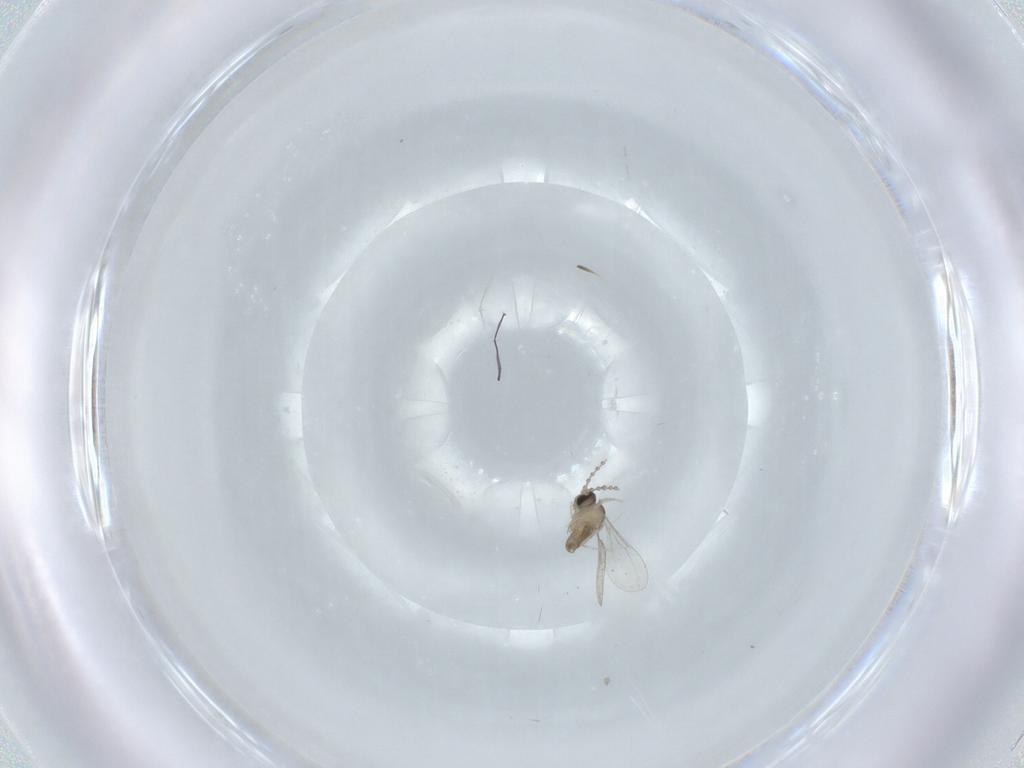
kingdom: Animalia
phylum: Arthropoda
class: Insecta
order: Diptera
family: Cecidomyiidae
